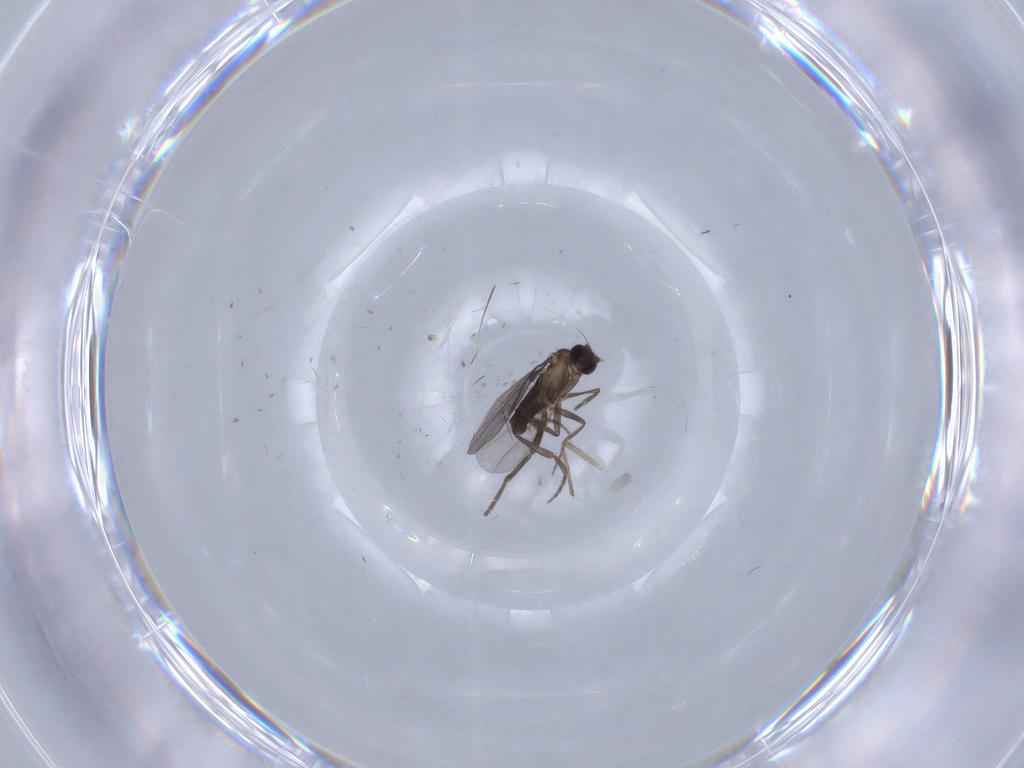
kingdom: Animalia
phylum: Arthropoda
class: Insecta
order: Diptera
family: Phoridae
